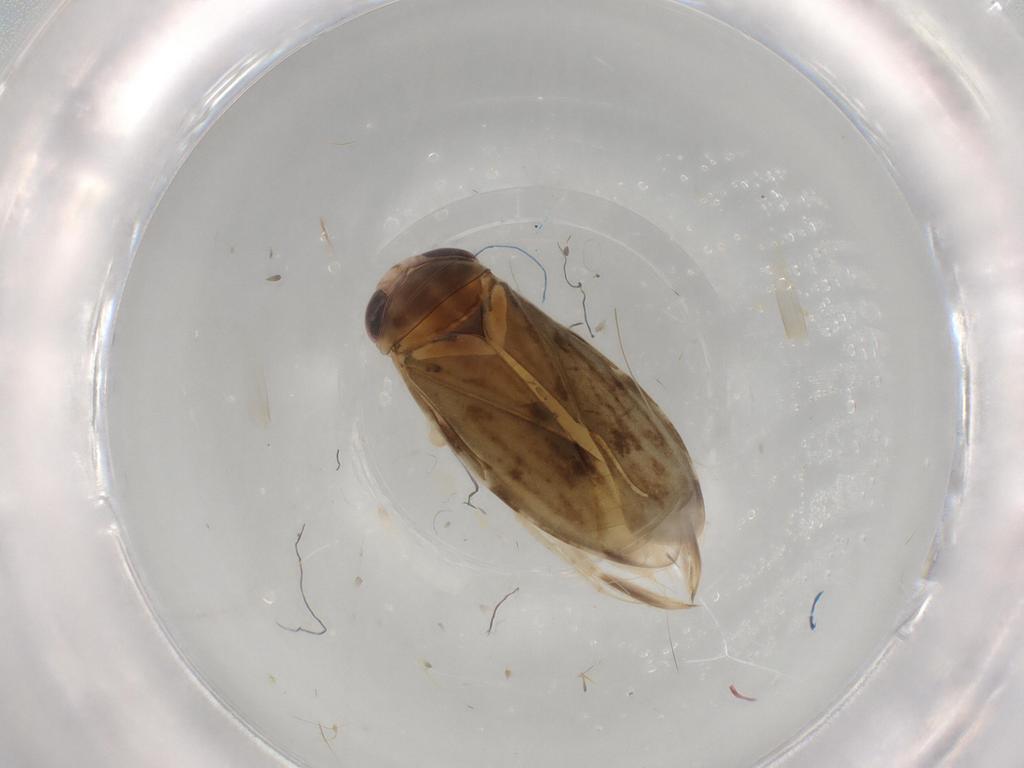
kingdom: Animalia
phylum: Arthropoda
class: Insecta
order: Hemiptera
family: Rhyparochromidae
